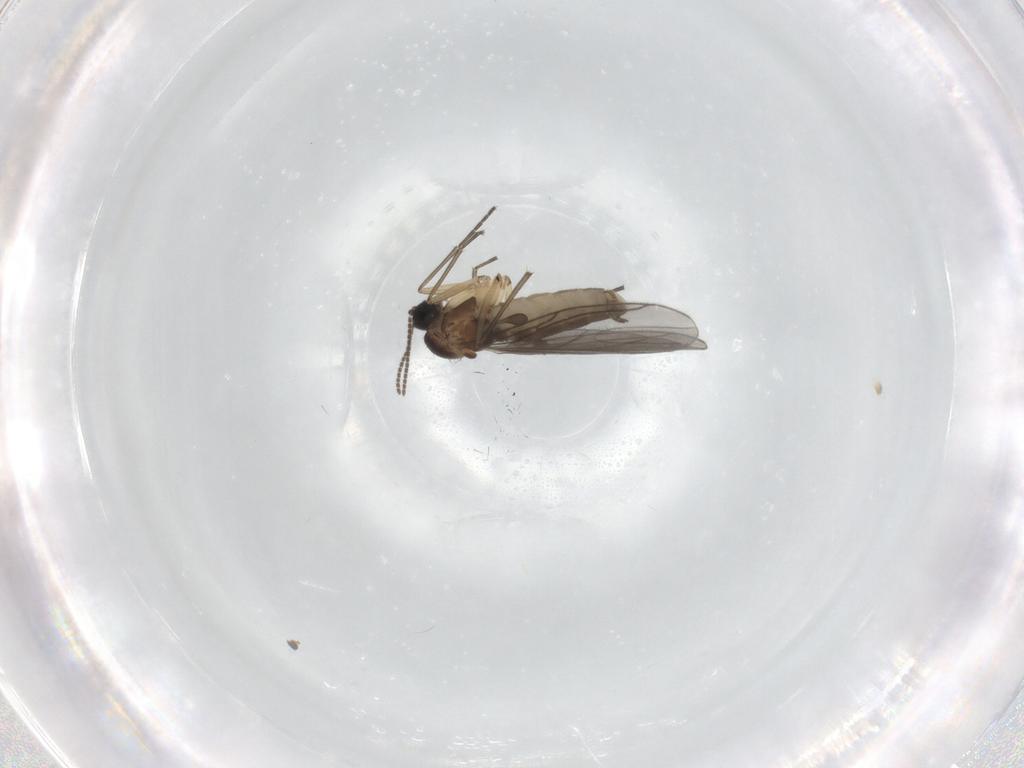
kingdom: Animalia
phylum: Arthropoda
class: Insecta
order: Diptera
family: Sciaridae
